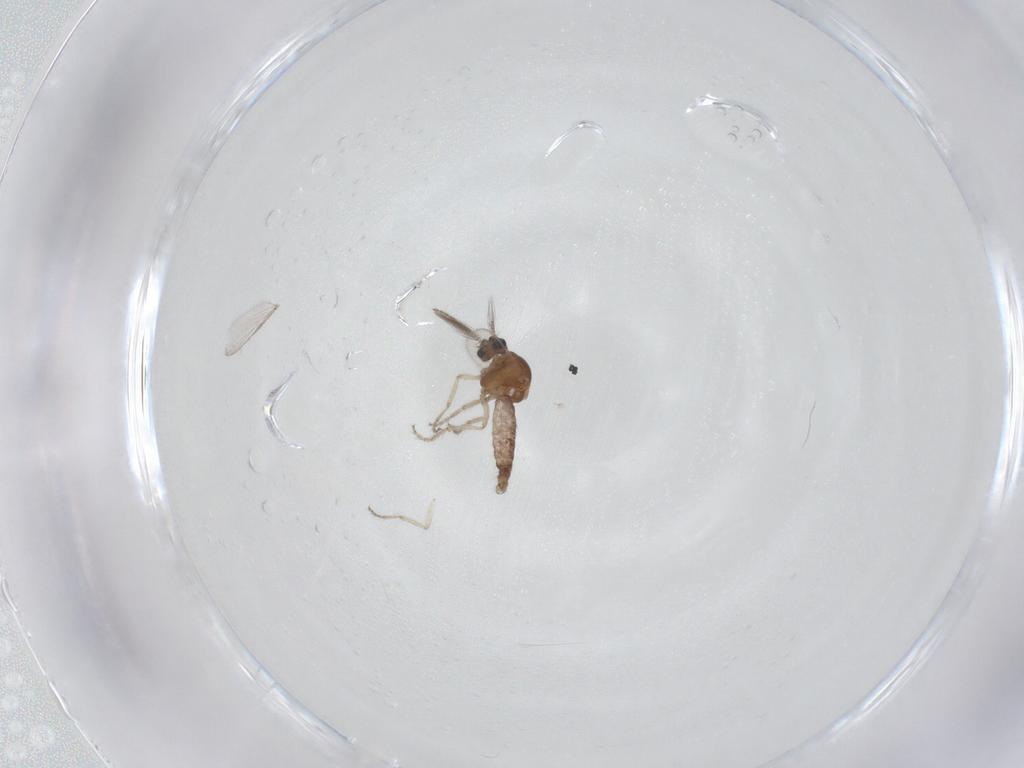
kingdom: Animalia
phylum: Arthropoda
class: Insecta
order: Diptera
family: Ceratopogonidae
